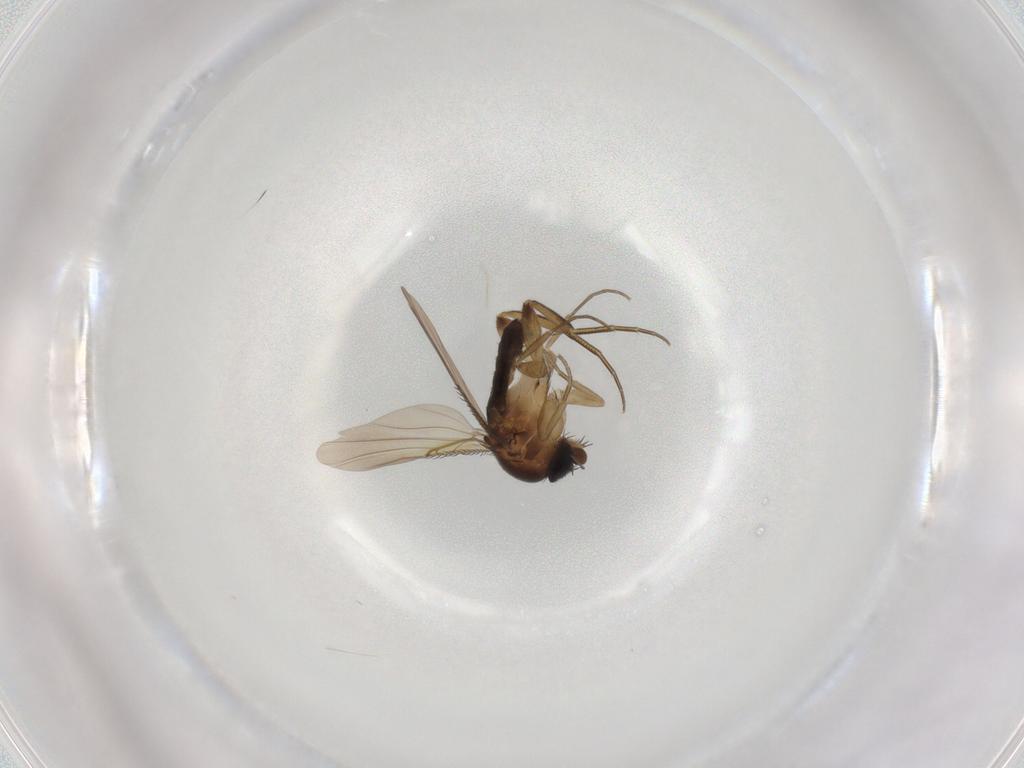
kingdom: Animalia
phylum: Arthropoda
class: Insecta
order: Diptera
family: Phoridae
